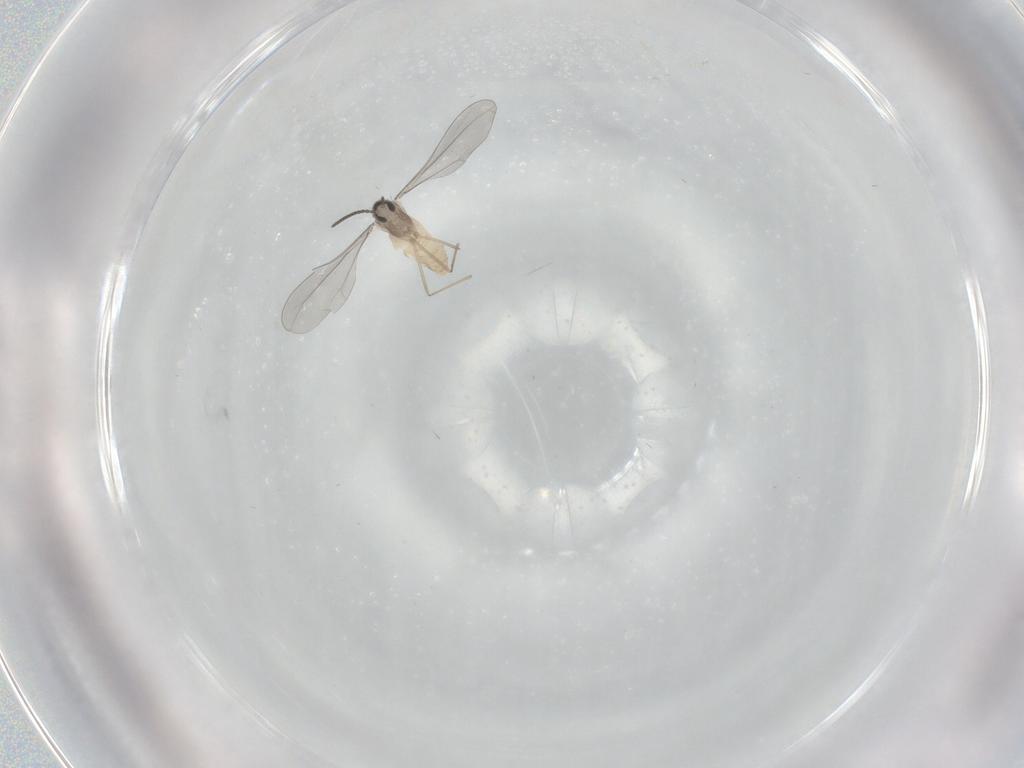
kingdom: Animalia
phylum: Arthropoda
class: Insecta
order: Diptera
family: Cecidomyiidae
